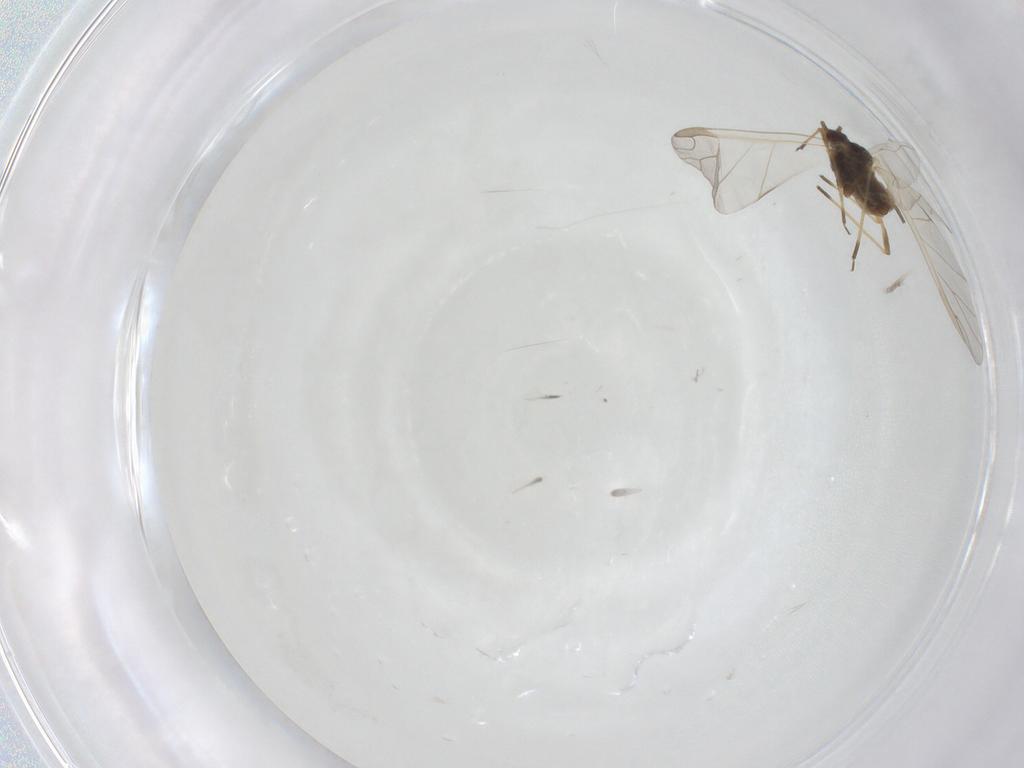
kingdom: Animalia
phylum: Arthropoda
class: Insecta
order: Hemiptera
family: Aphididae
